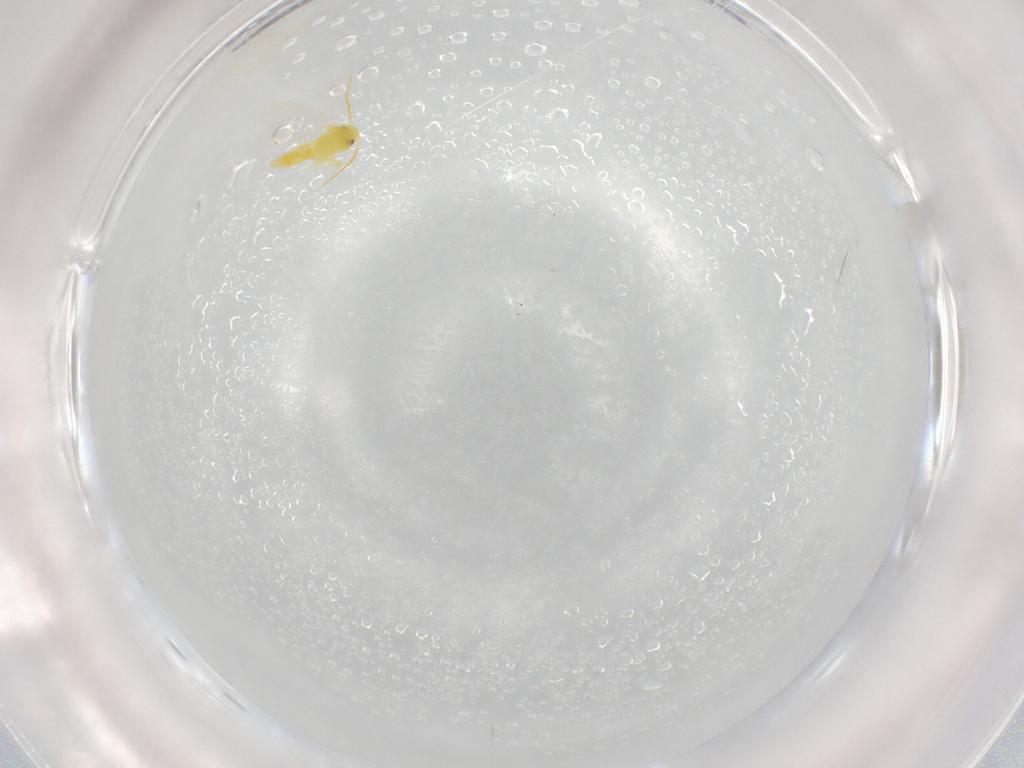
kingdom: Animalia
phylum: Arthropoda
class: Insecta
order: Hemiptera
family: Aleyrodidae
